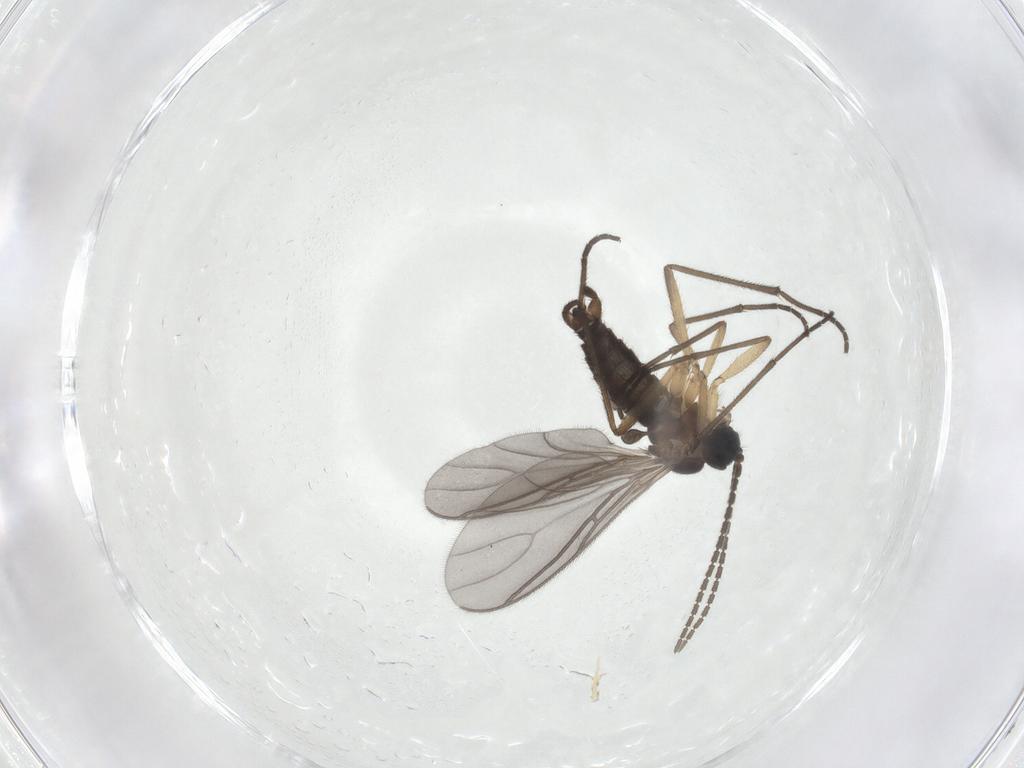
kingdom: Animalia
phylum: Arthropoda
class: Insecta
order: Diptera
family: Sciaridae
